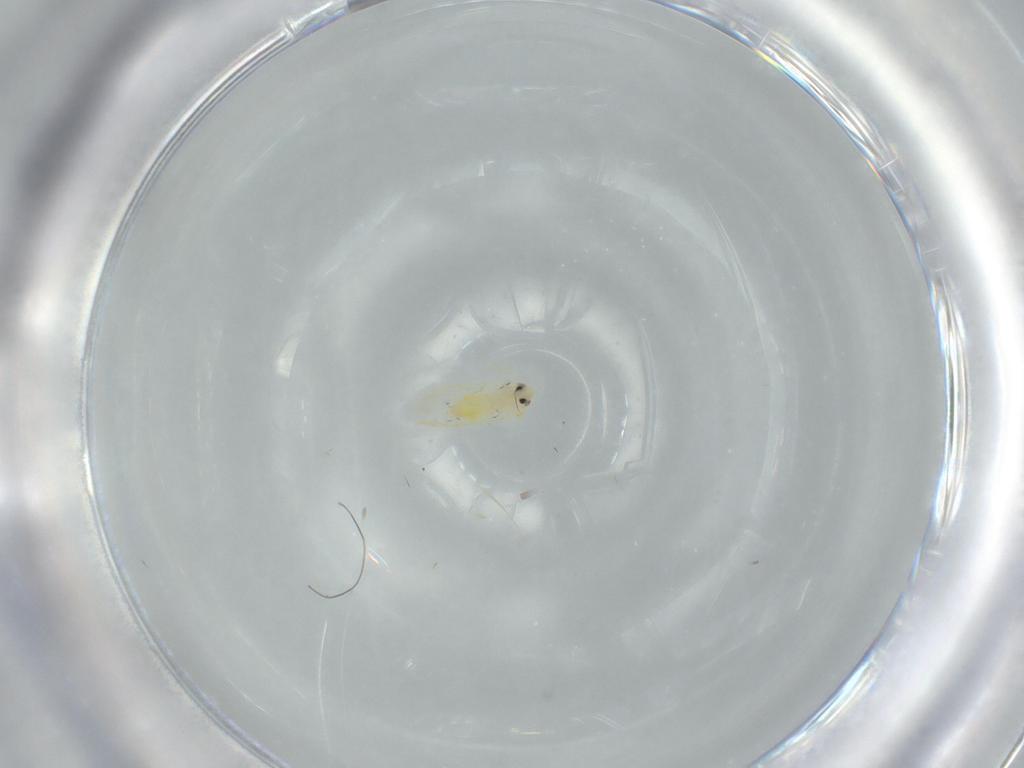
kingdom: Animalia
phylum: Arthropoda
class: Insecta
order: Hemiptera
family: Aleyrodidae
